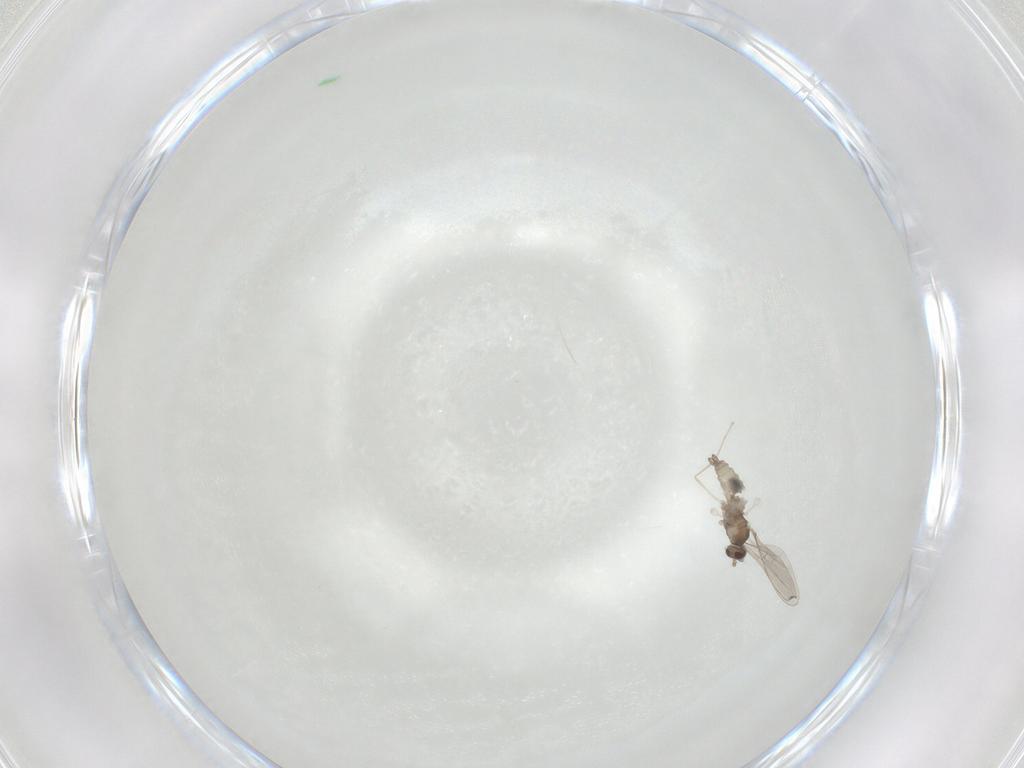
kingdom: Animalia
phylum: Arthropoda
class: Insecta
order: Diptera
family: Cecidomyiidae
